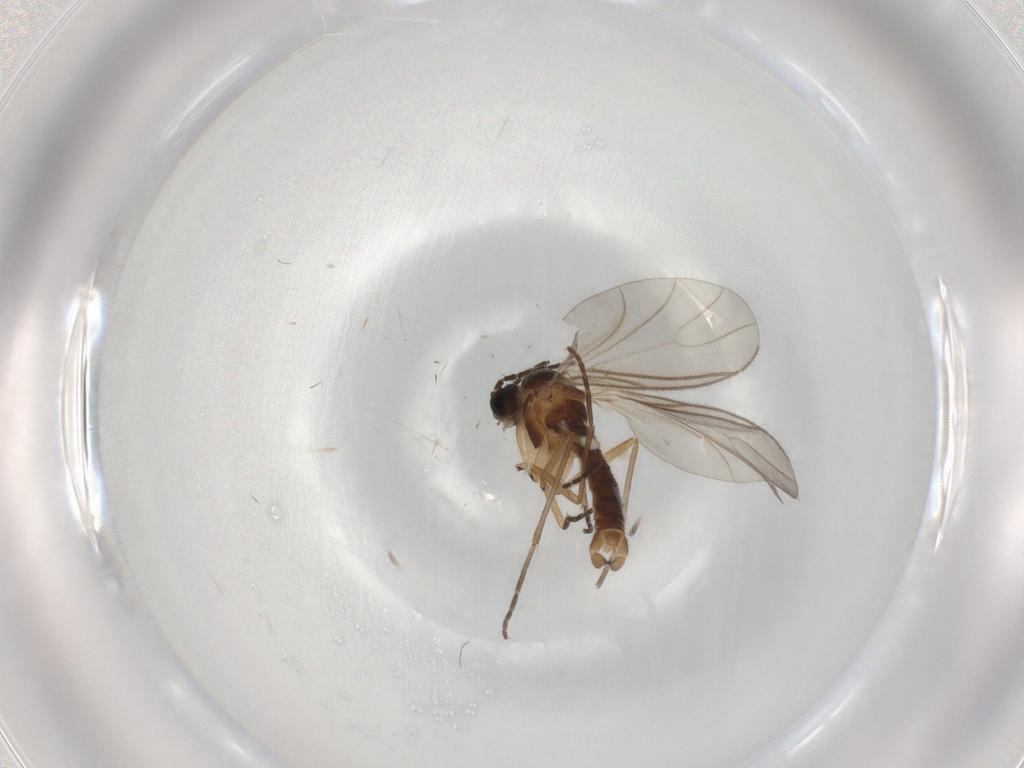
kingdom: Animalia
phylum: Arthropoda
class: Insecta
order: Diptera
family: Sciaridae
